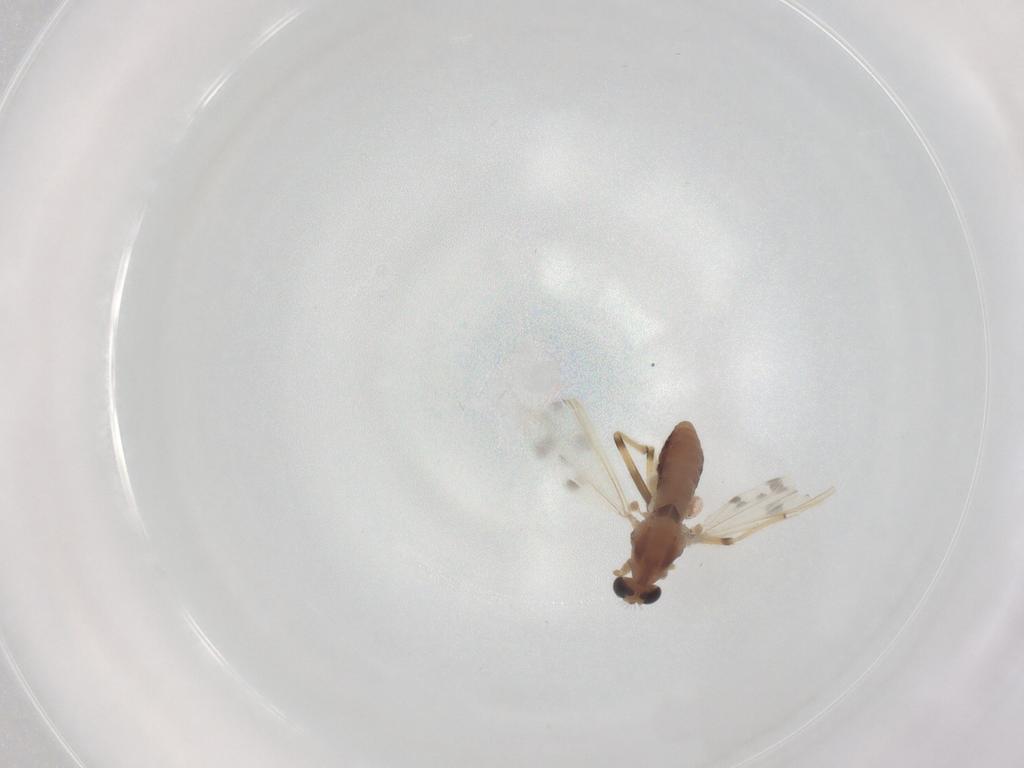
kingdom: Animalia
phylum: Arthropoda
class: Insecta
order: Diptera
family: Chironomidae
